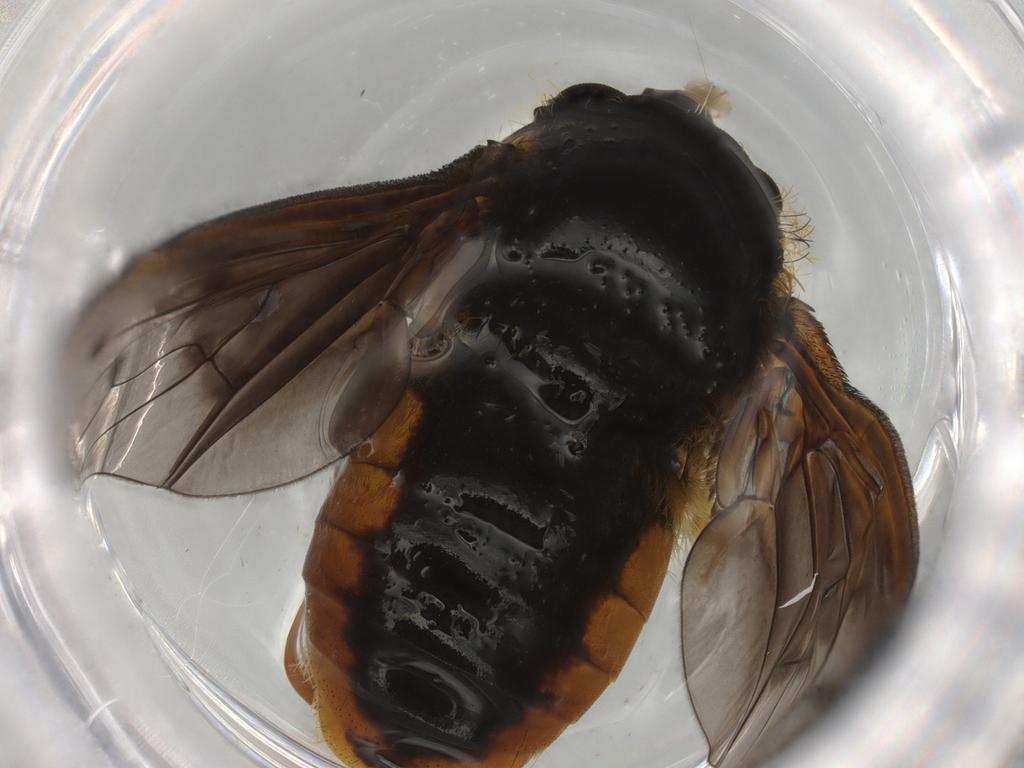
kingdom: Animalia
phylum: Arthropoda
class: Insecta
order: Diptera
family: Bombyliidae
